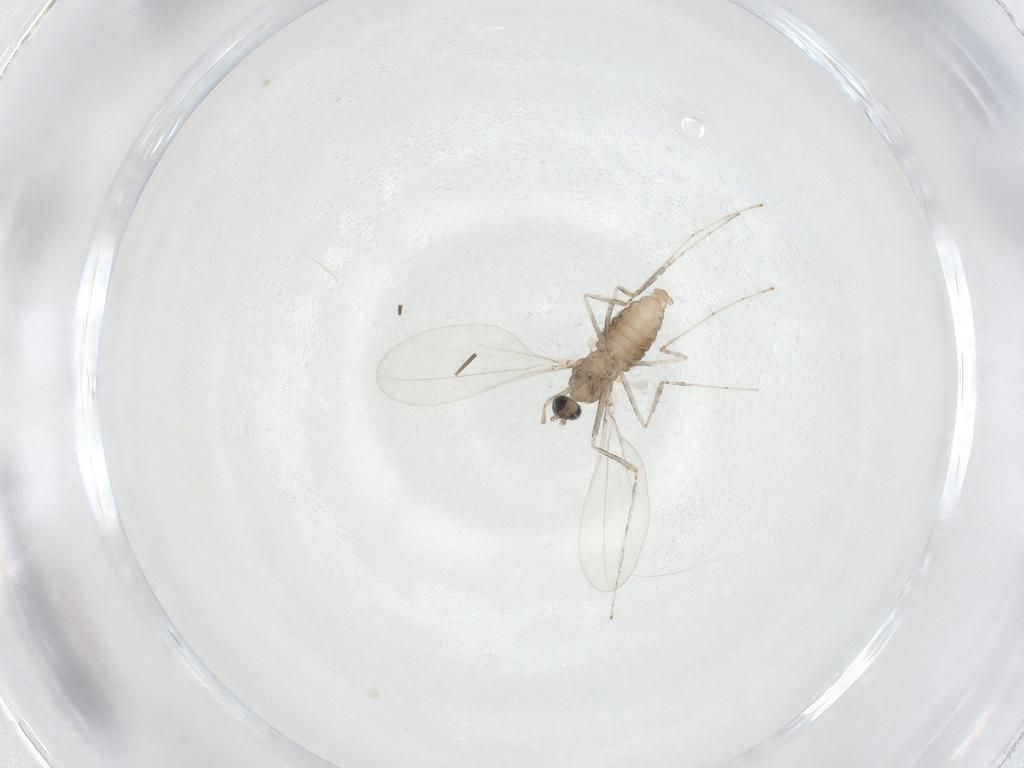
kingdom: Animalia
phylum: Arthropoda
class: Insecta
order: Diptera
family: Cecidomyiidae
